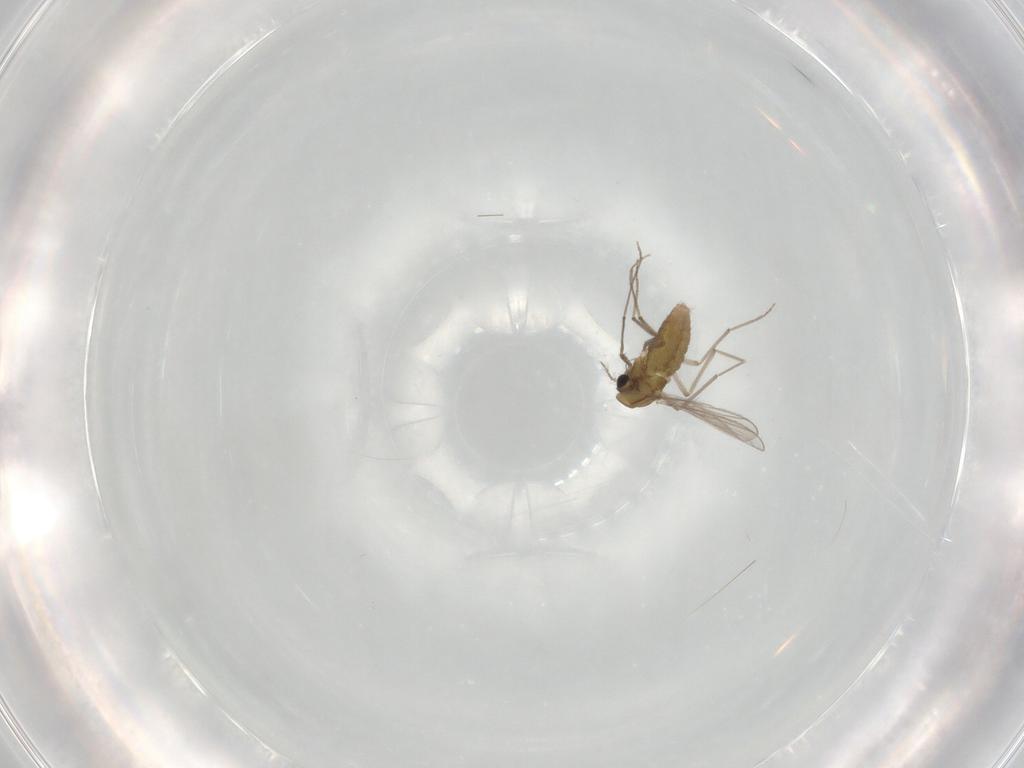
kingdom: Animalia
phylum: Arthropoda
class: Insecta
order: Diptera
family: Chironomidae
